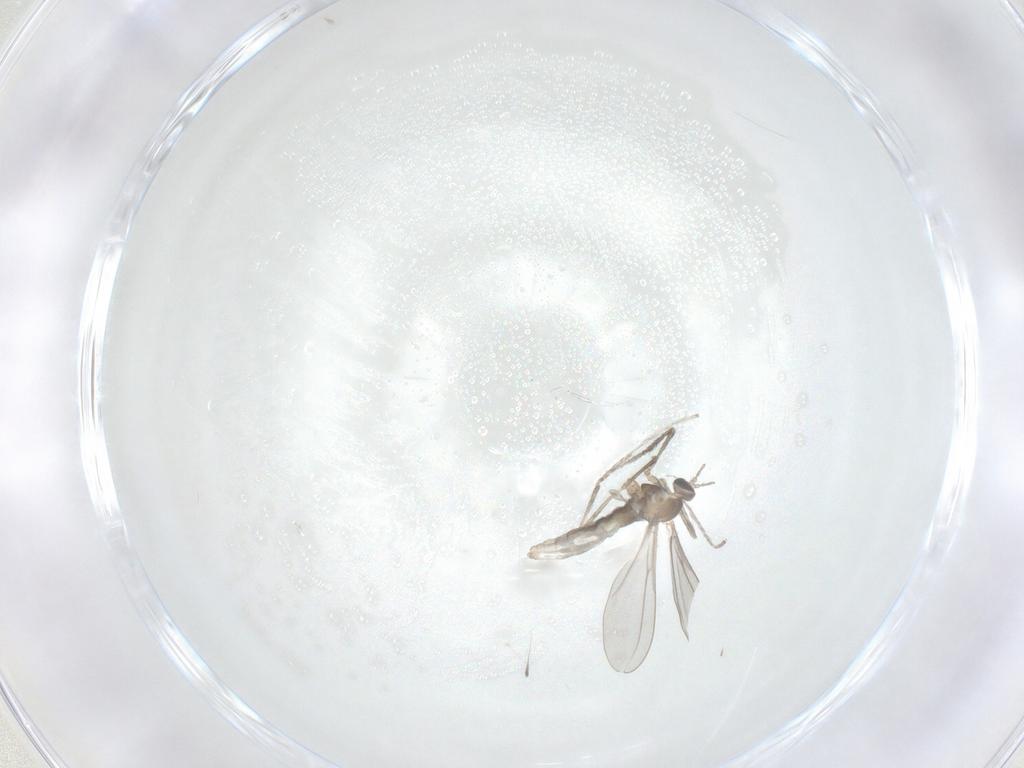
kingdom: Animalia
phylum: Arthropoda
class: Insecta
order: Diptera
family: Cecidomyiidae
